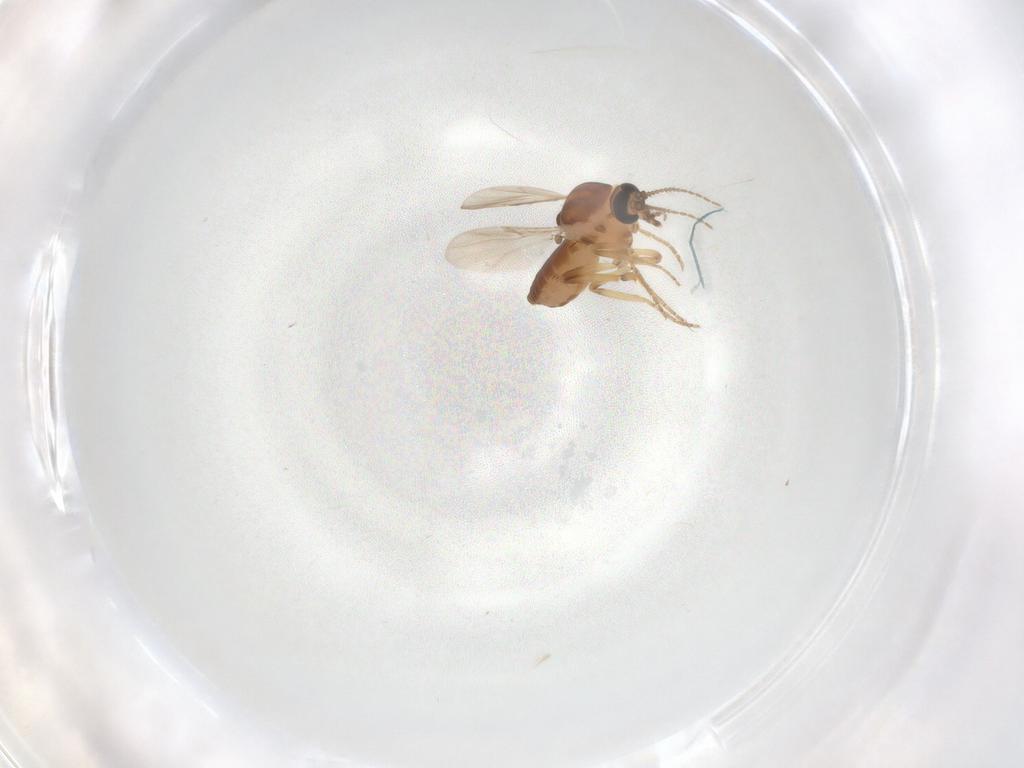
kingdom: Animalia
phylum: Arthropoda
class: Insecta
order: Diptera
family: Ceratopogonidae
